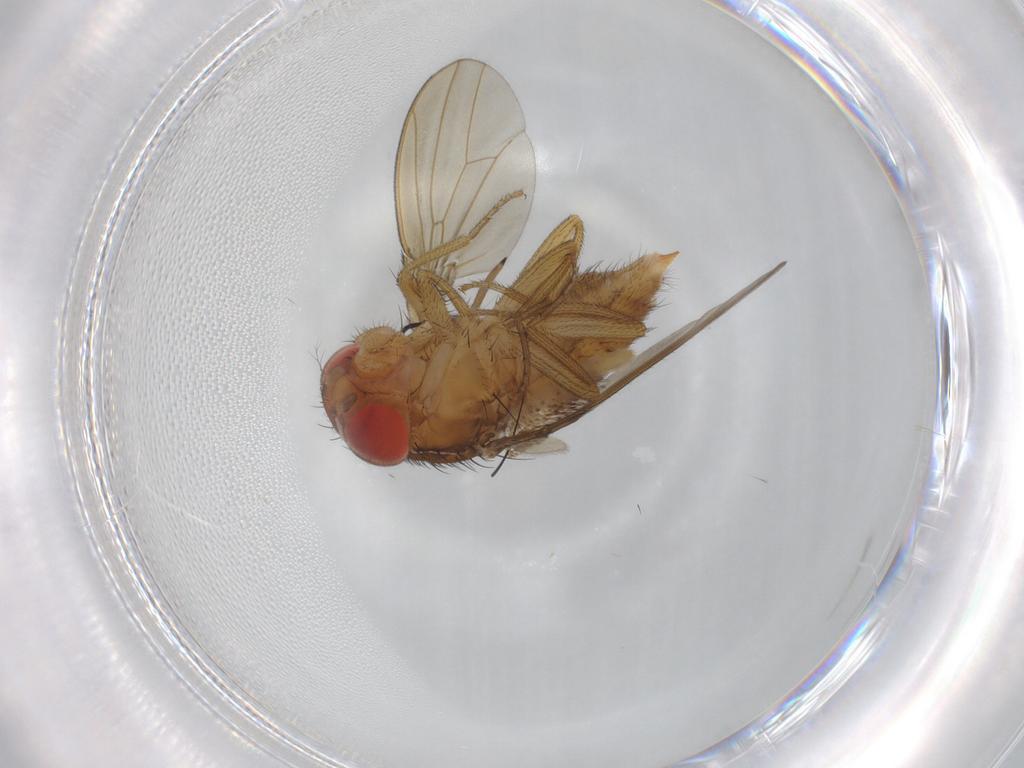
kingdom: Animalia
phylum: Arthropoda
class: Insecta
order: Diptera
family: Drosophilidae
